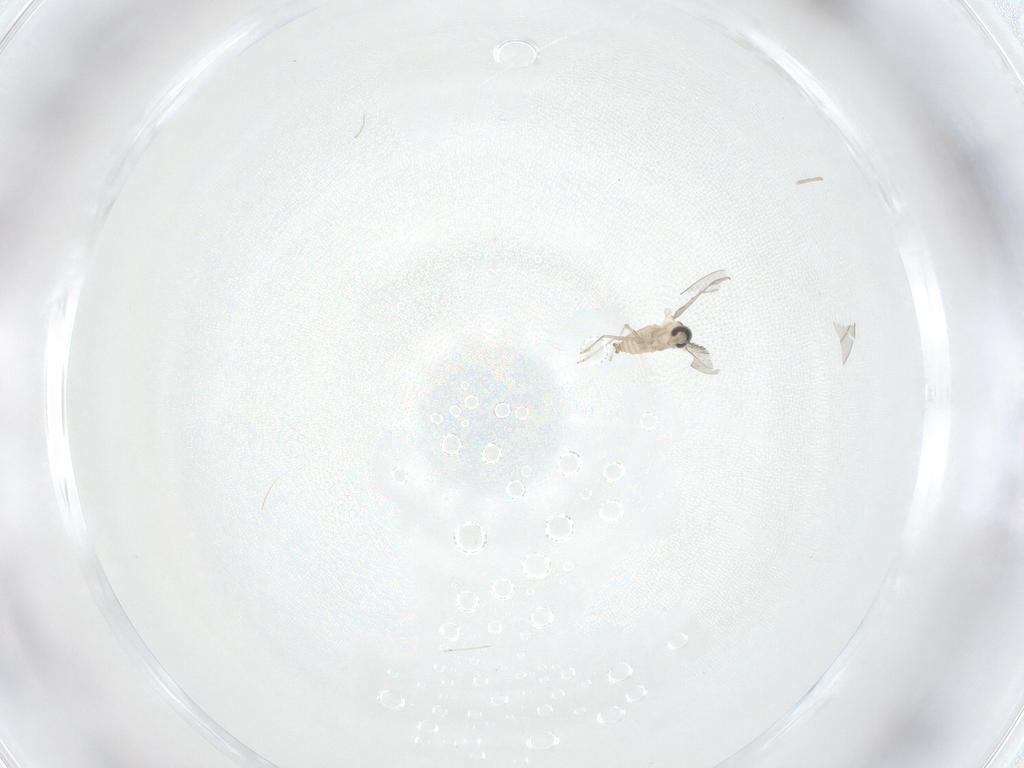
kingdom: Animalia
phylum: Arthropoda
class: Insecta
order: Diptera
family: Cecidomyiidae
